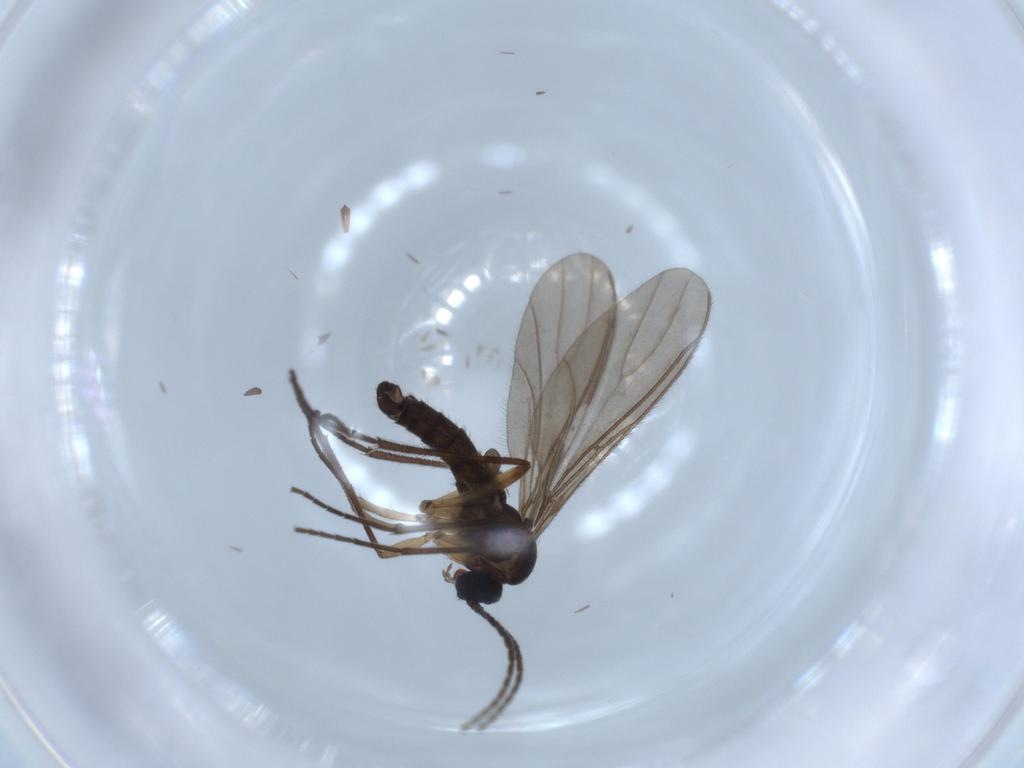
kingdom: Animalia
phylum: Arthropoda
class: Insecta
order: Diptera
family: Sciaridae
